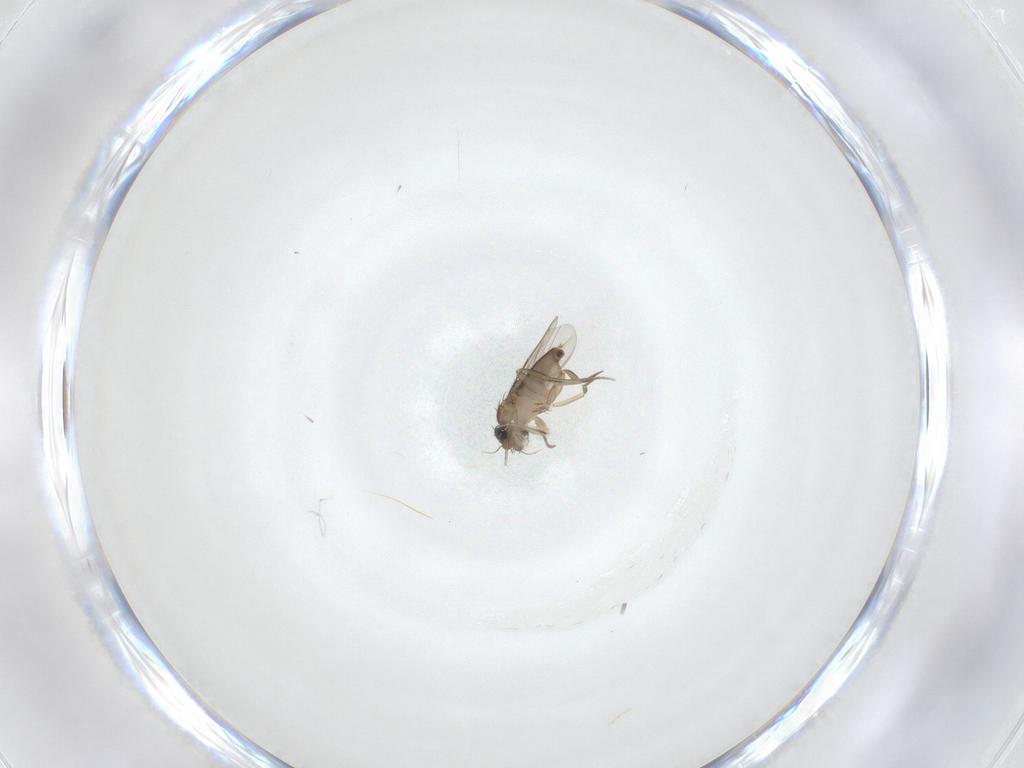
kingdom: Animalia
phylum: Arthropoda
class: Insecta
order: Diptera
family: Phoridae
